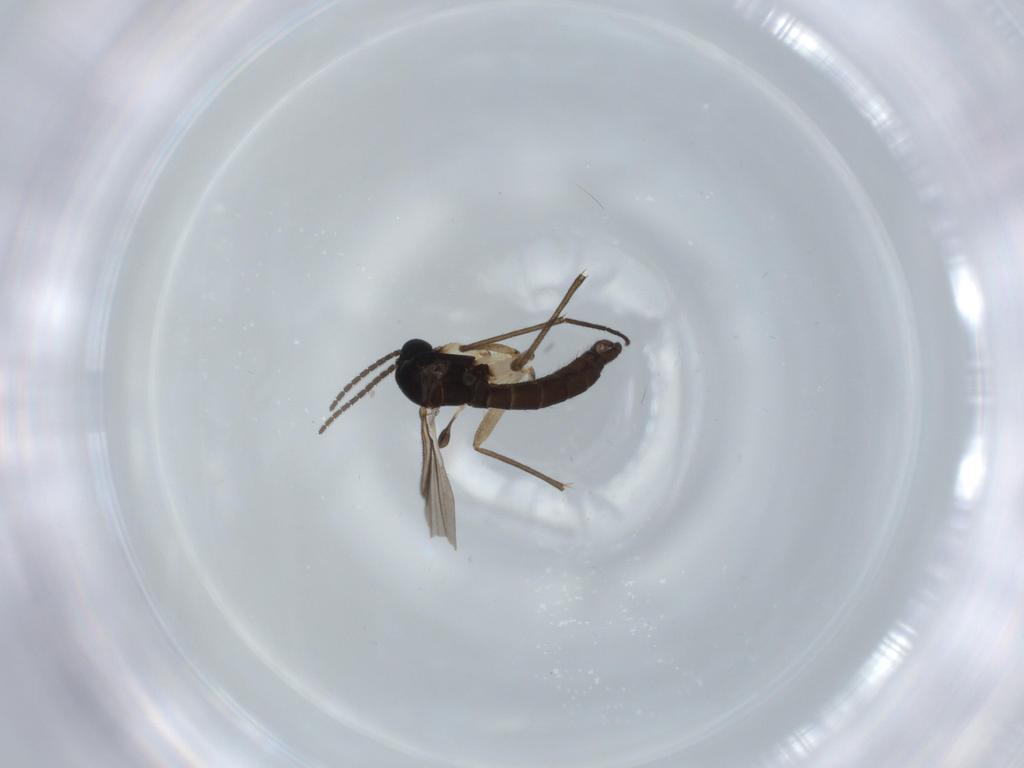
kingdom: Animalia
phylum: Arthropoda
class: Insecta
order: Diptera
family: Sciaridae
